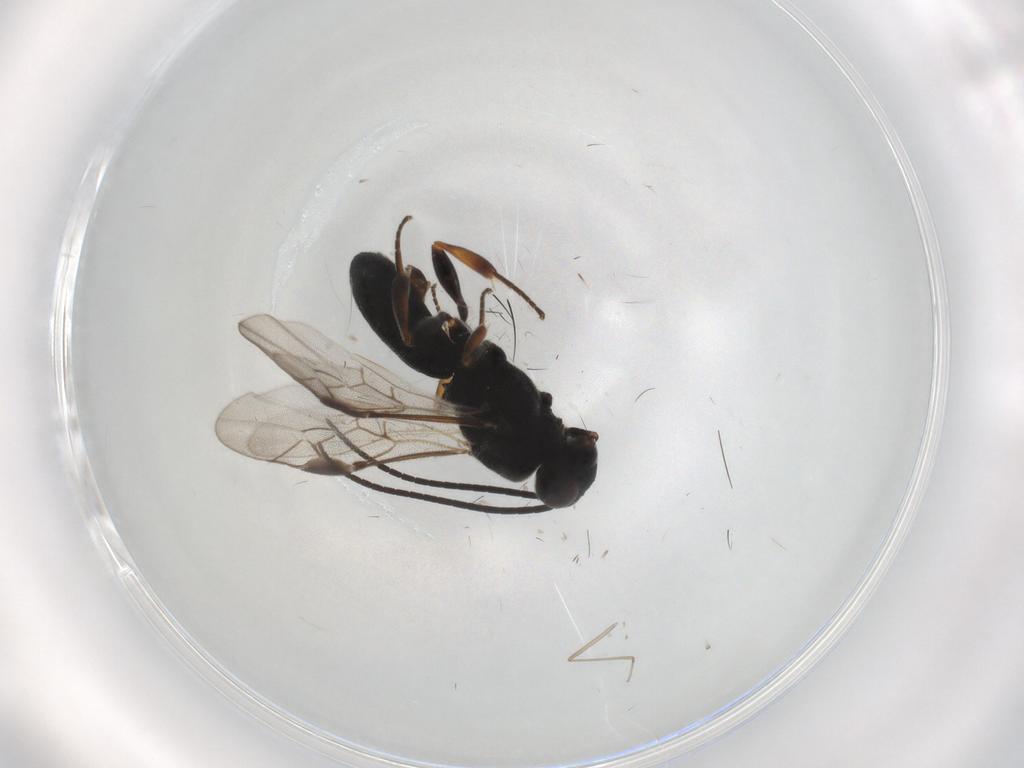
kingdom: Animalia
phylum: Arthropoda
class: Insecta
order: Hymenoptera
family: Braconidae
